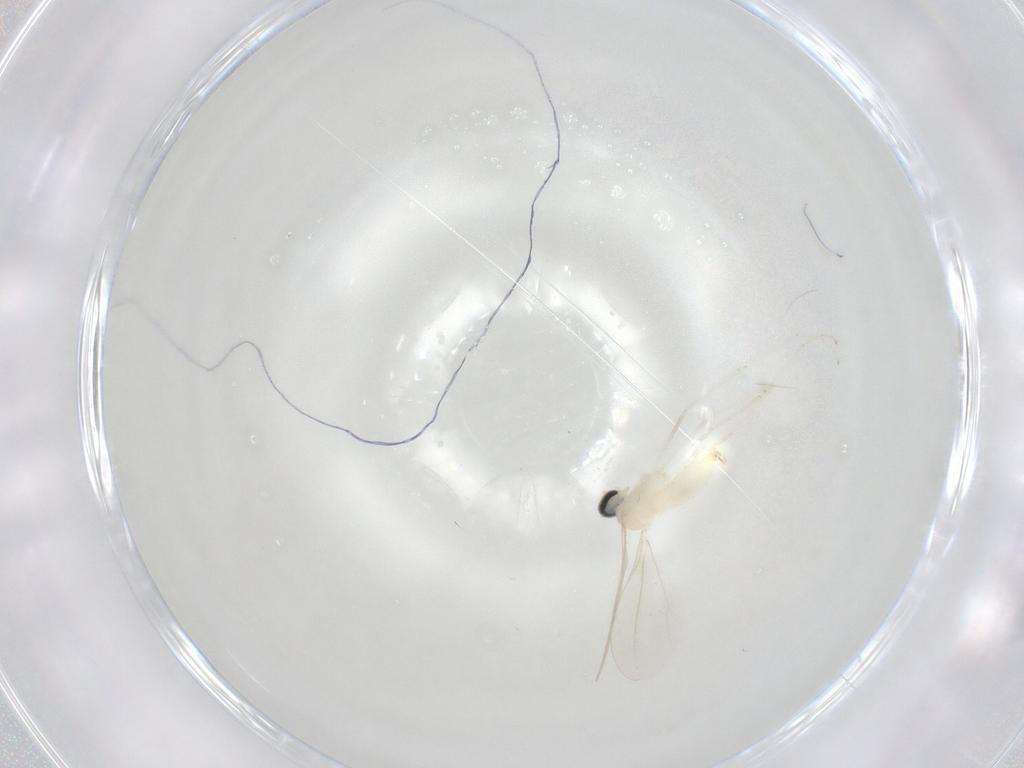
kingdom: Animalia
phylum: Arthropoda
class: Insecta
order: Diptera
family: Cecidomyiidae
